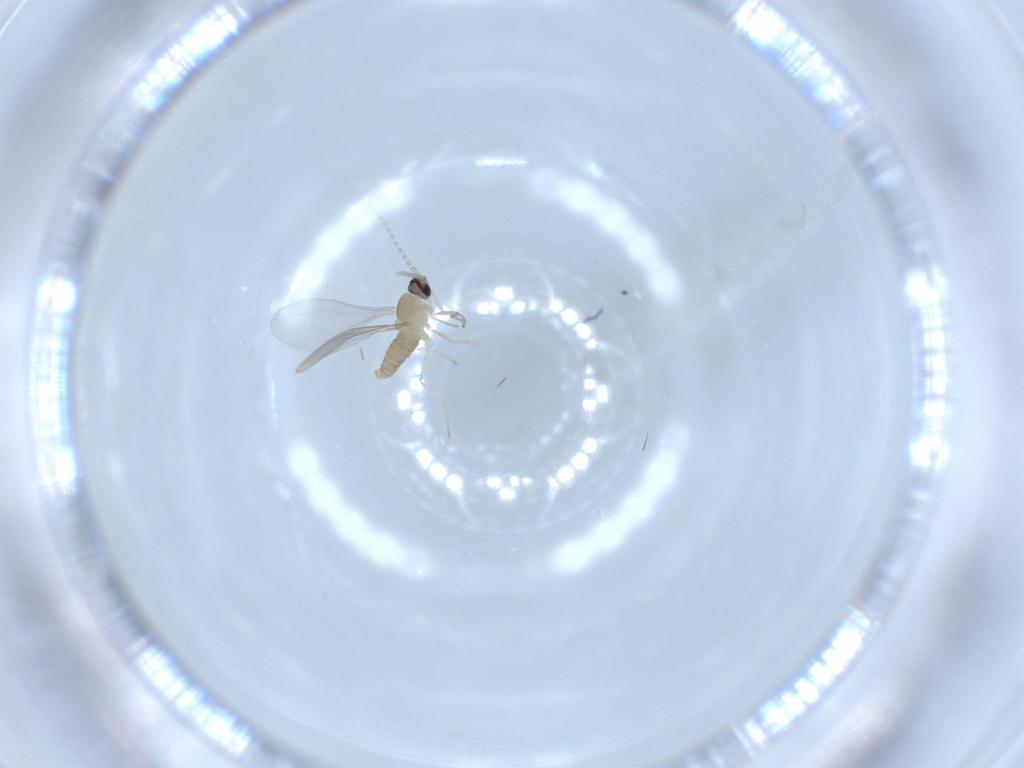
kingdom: Animalia
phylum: Arthropoda
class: Insecta
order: Diptera
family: Cecidomyiidae
